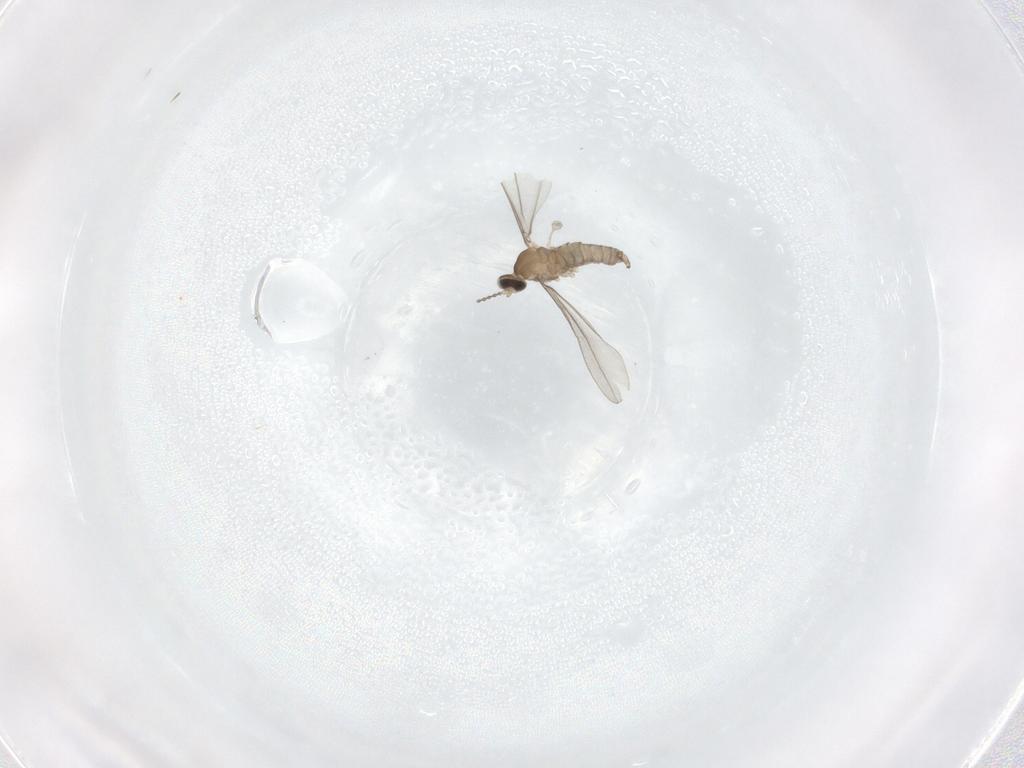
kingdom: Animalia
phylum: Arthropoda
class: Insecta
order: Diptera
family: Ceratopogonidae
